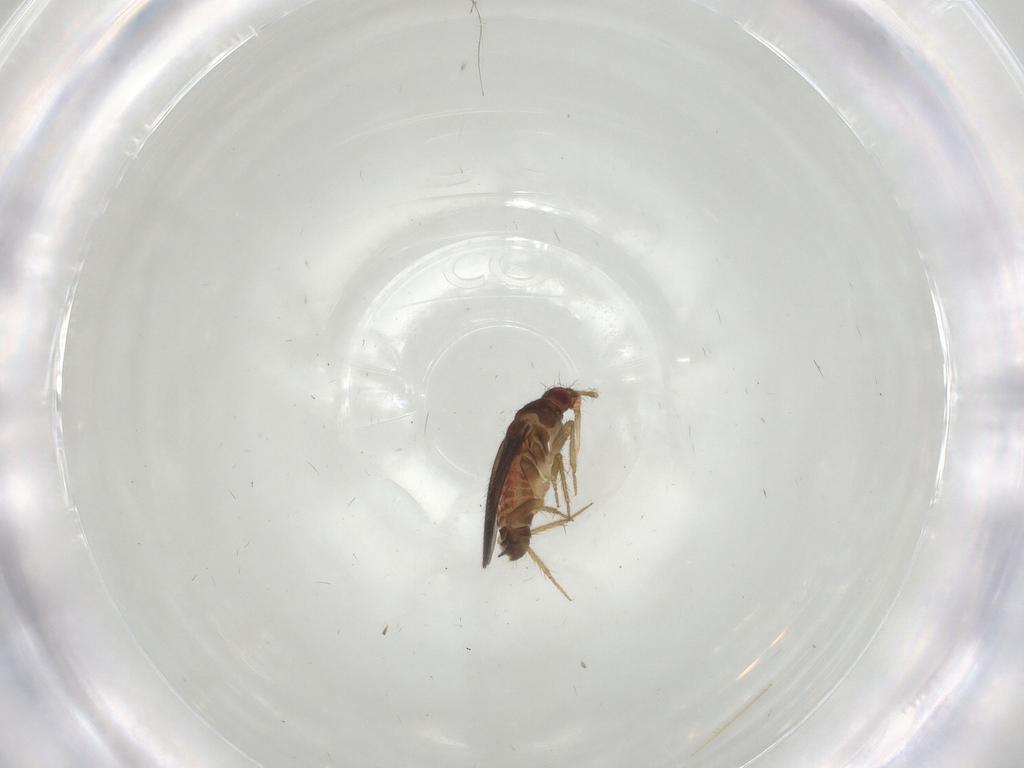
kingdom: Animalia
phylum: Arthropoda
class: Insecta
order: Hemiptera
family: Ceratocombidae
